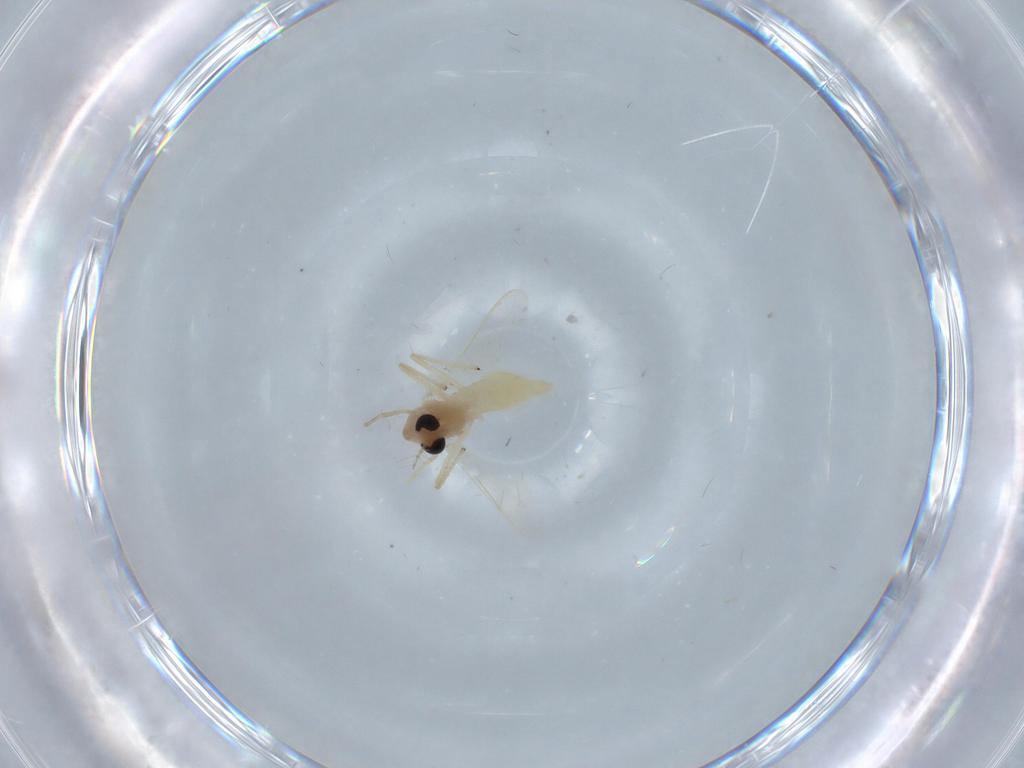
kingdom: Animalia
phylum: Arthropoda
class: Insecta
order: Diptera
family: Chironomidae
